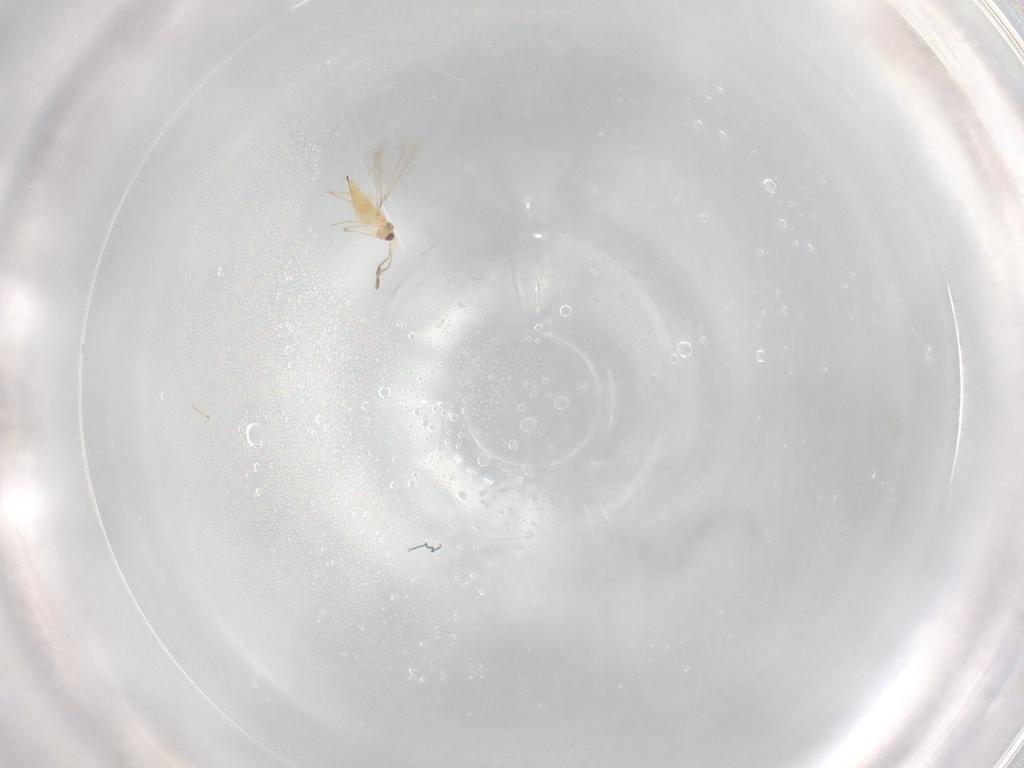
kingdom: Animalia
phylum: Arthropoda
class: Insecta
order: Hymenoptera
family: Mymaridae
